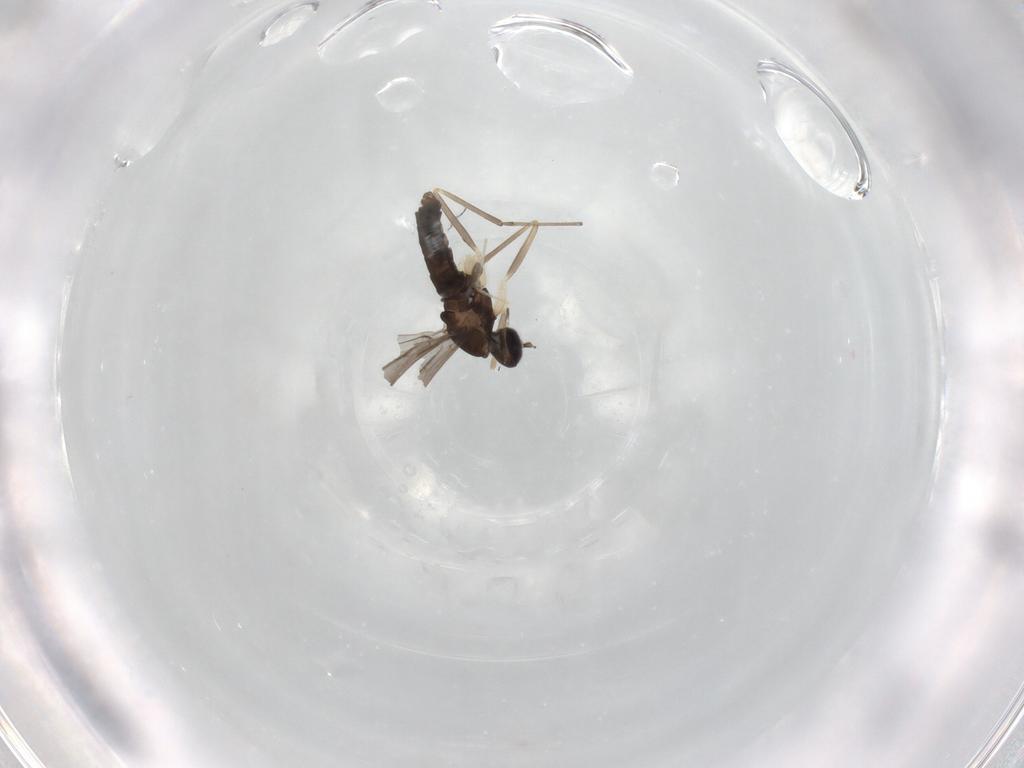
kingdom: Animalia
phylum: Arthropoda
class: Insecta
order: Diptera
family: Cecidomyiidae
